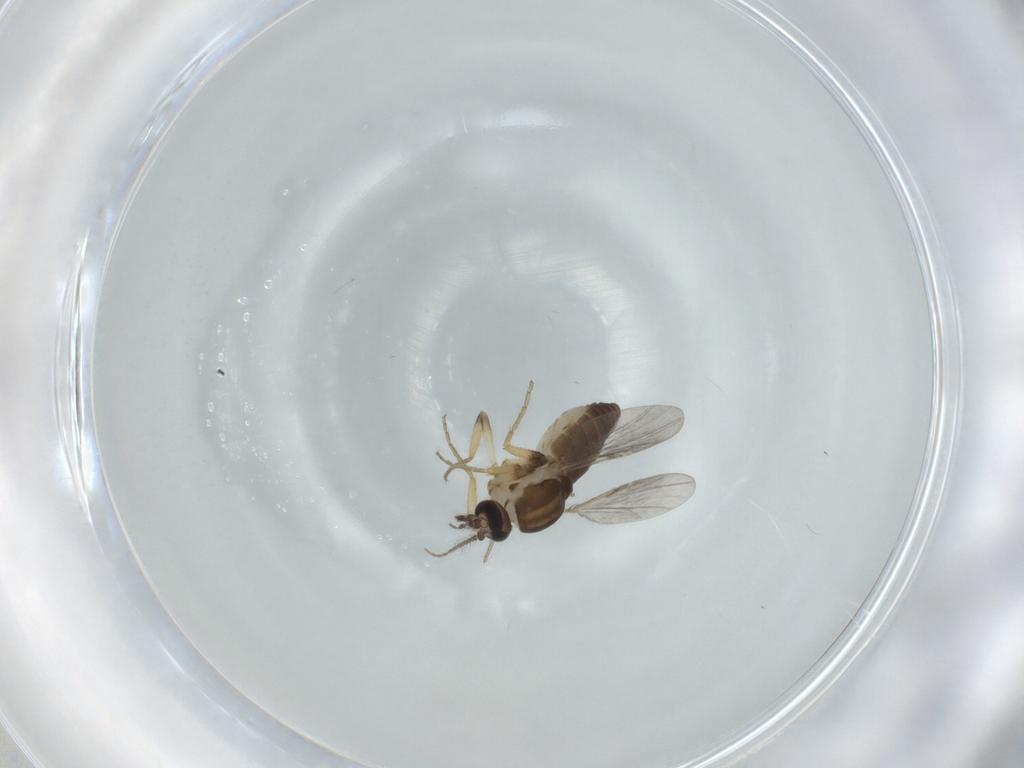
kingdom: Animalia
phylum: Arthropoda
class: Insecta
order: Diptera
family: Ceratopogonidae
